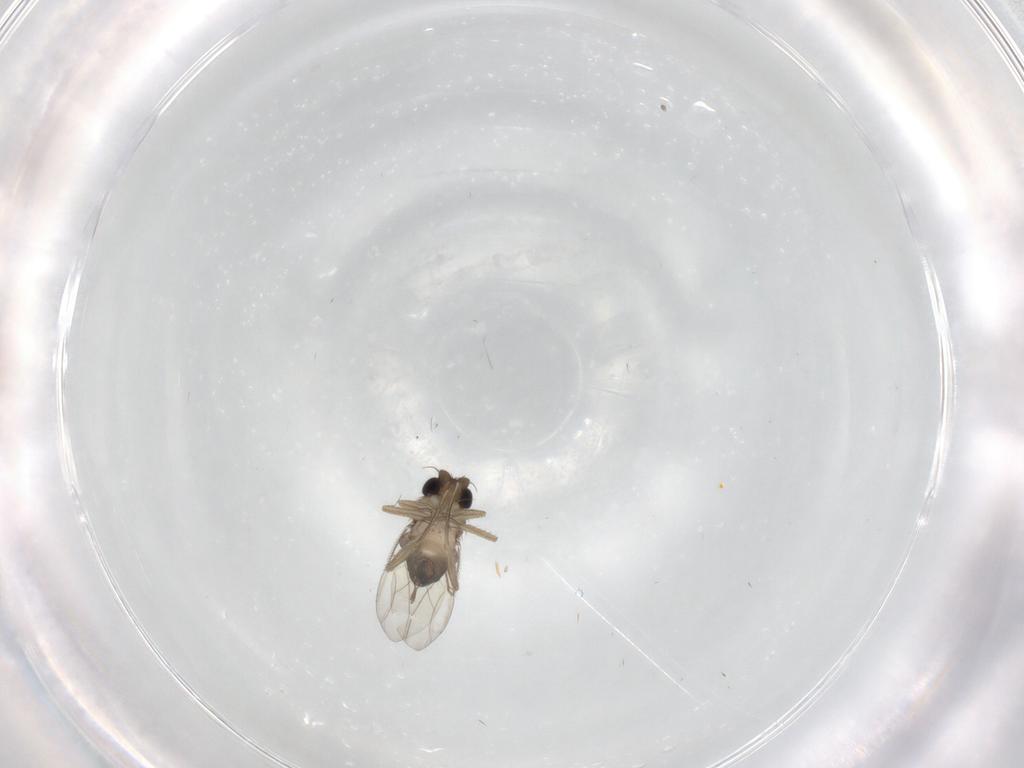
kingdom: Animalia
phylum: Arthropoda
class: Insecta
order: Diptera
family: Phoridae
